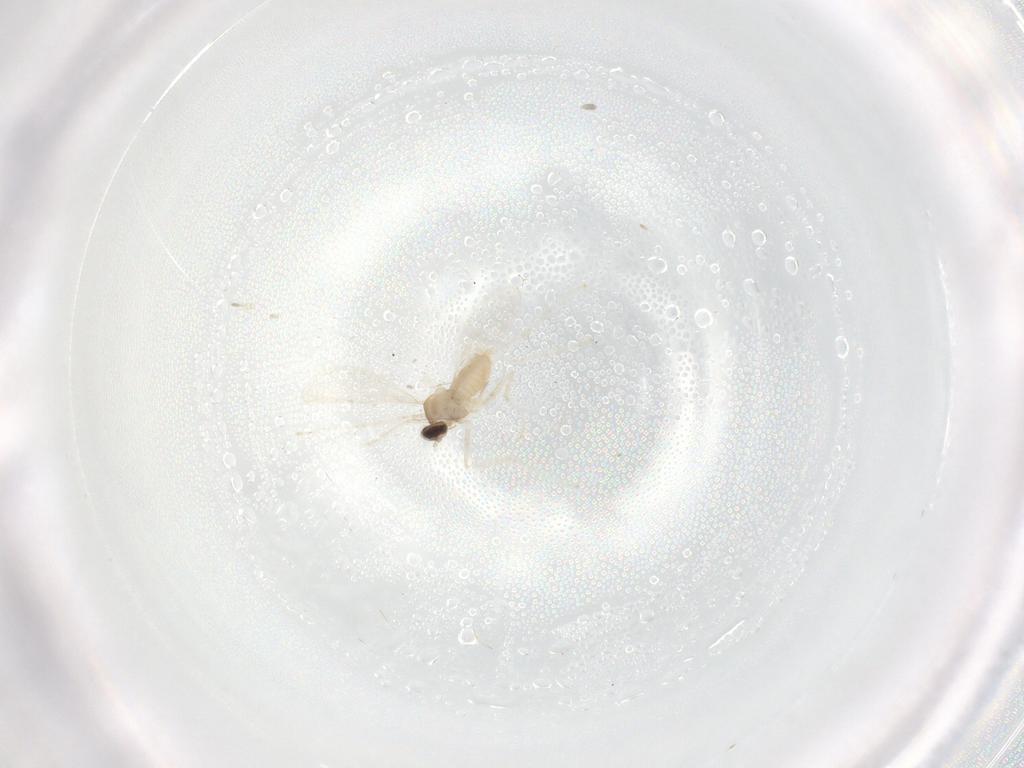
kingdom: Animalia
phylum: Arthropoda
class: Insecta
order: Diptera
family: Cecidomyiidae
